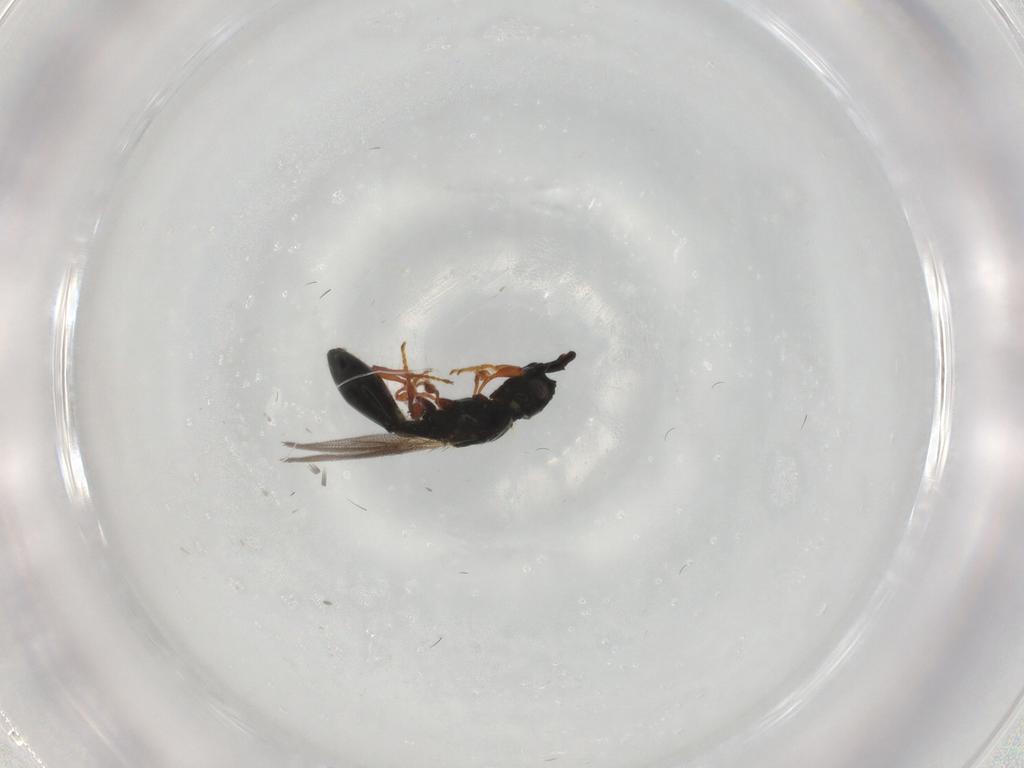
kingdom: Animalia
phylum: Arthropoda
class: Insecta
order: Hymenoptera
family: Diapriidae
